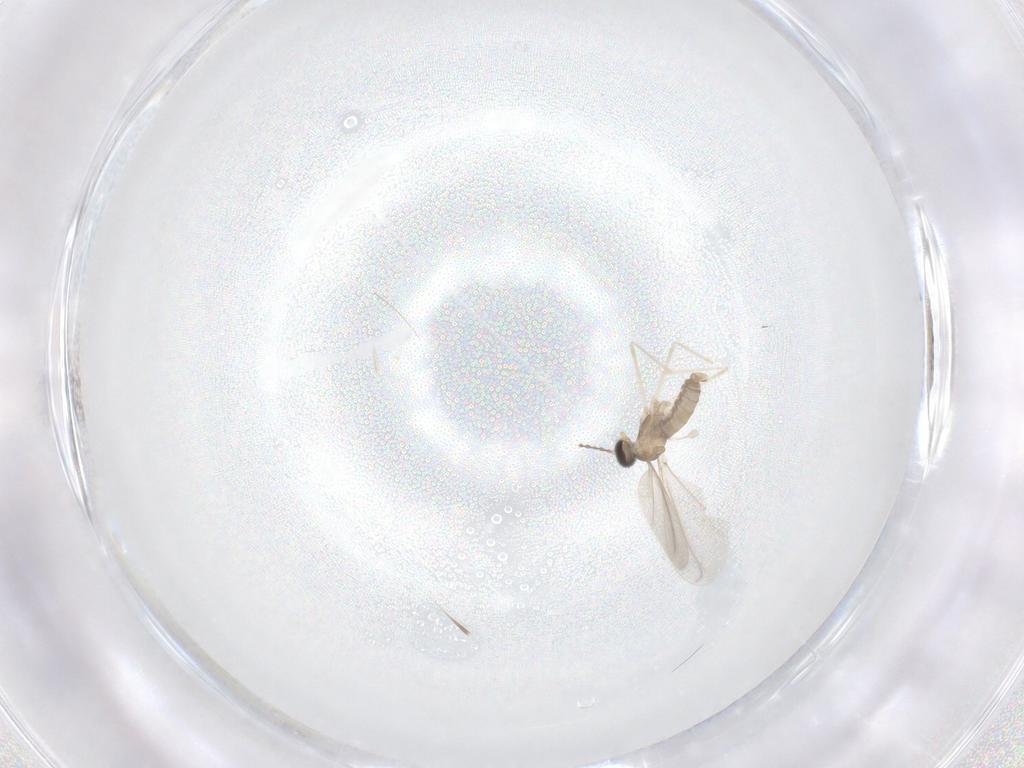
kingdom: Animalia
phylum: Arthropoda
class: Insecta
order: Diptera
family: Cecidomyiidae
